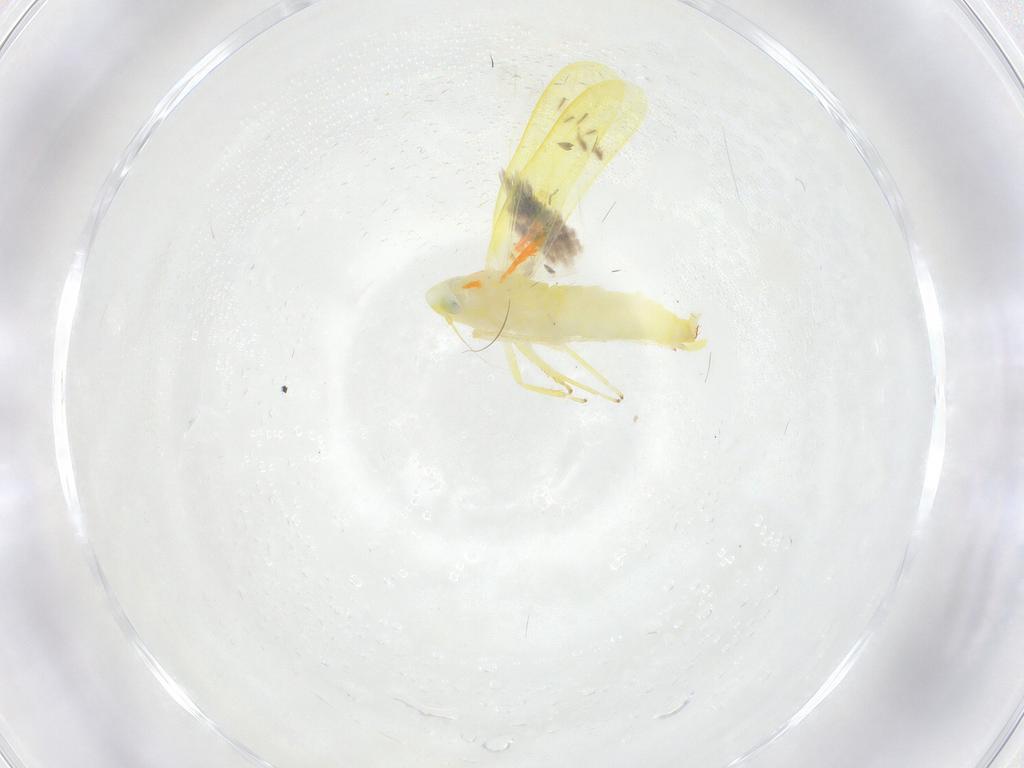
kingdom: Animalia
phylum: Arthropoda
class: Insecta
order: Hemiptera
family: Cicadellidae
